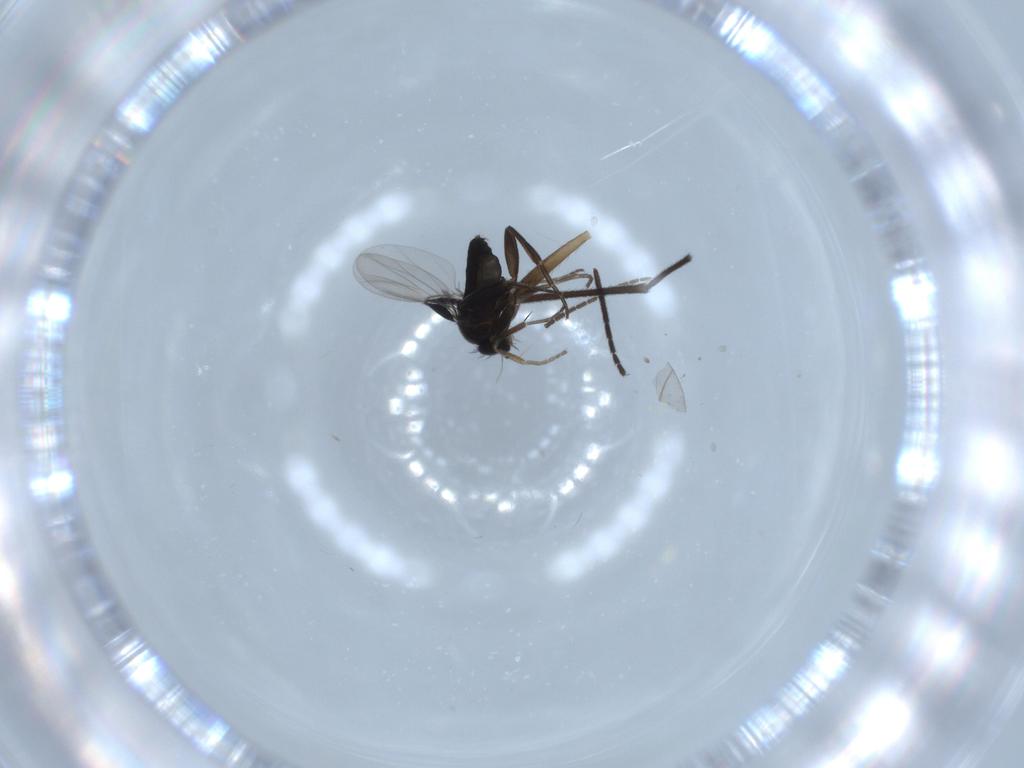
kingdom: Animalia
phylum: Arthropoda
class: Insecta
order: Diptera
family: Phoridae
